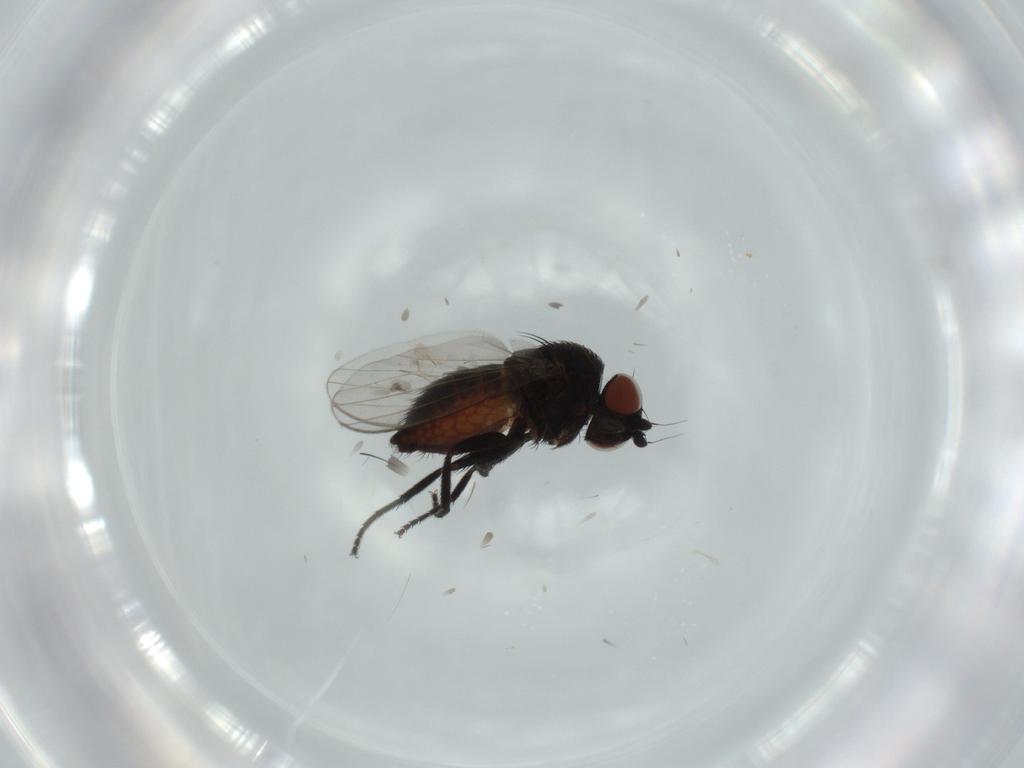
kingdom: Animalia
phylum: Arthropoda
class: Insecta
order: Diptera
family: Milichiidae
